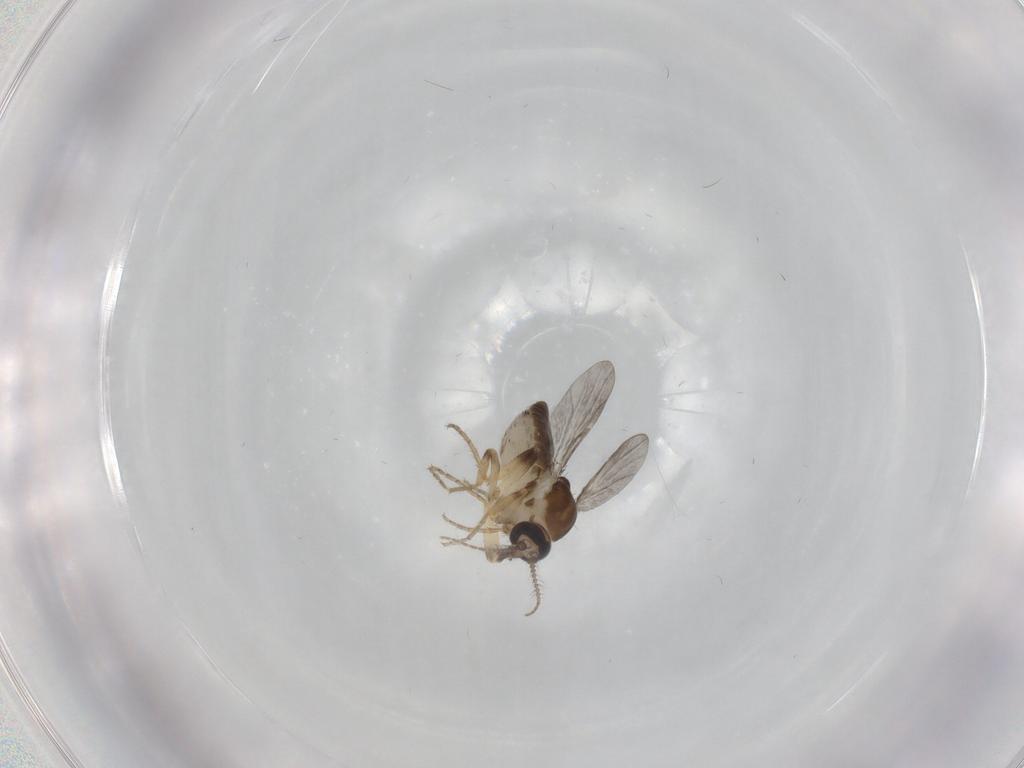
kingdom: Animalia
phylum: Arthropoda
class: Insecta
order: Diptera
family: Ceratopogonidae
